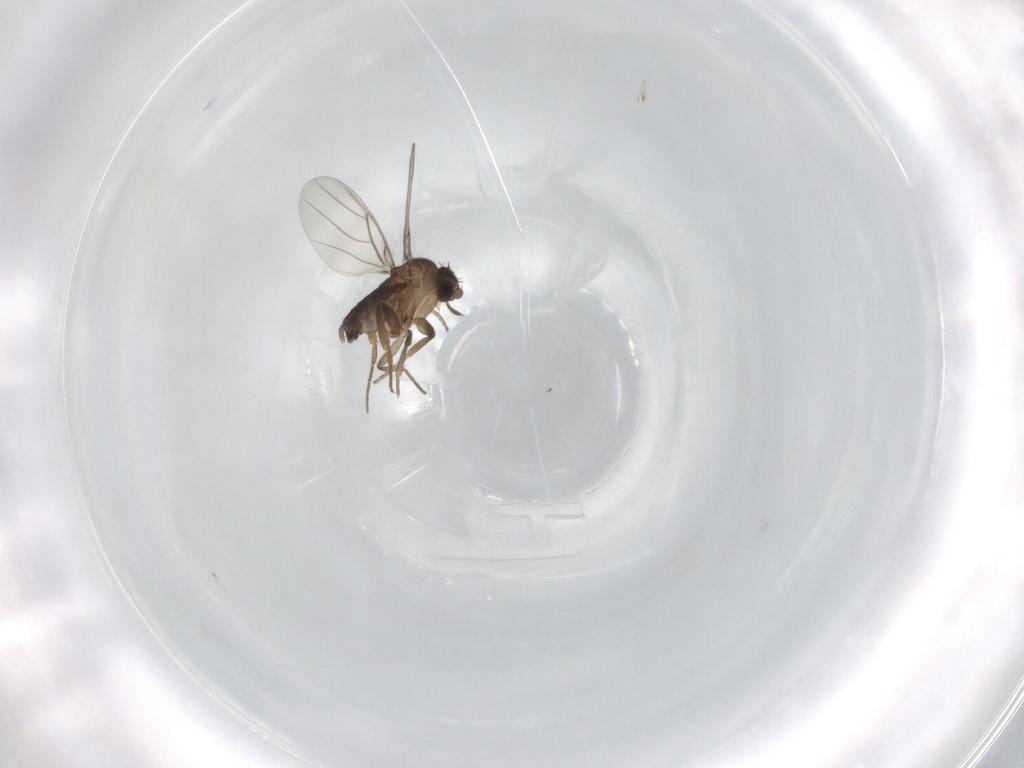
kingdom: Animalia
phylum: Arthropoda
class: Insecta
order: Diptera
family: Cecidomyiidae
